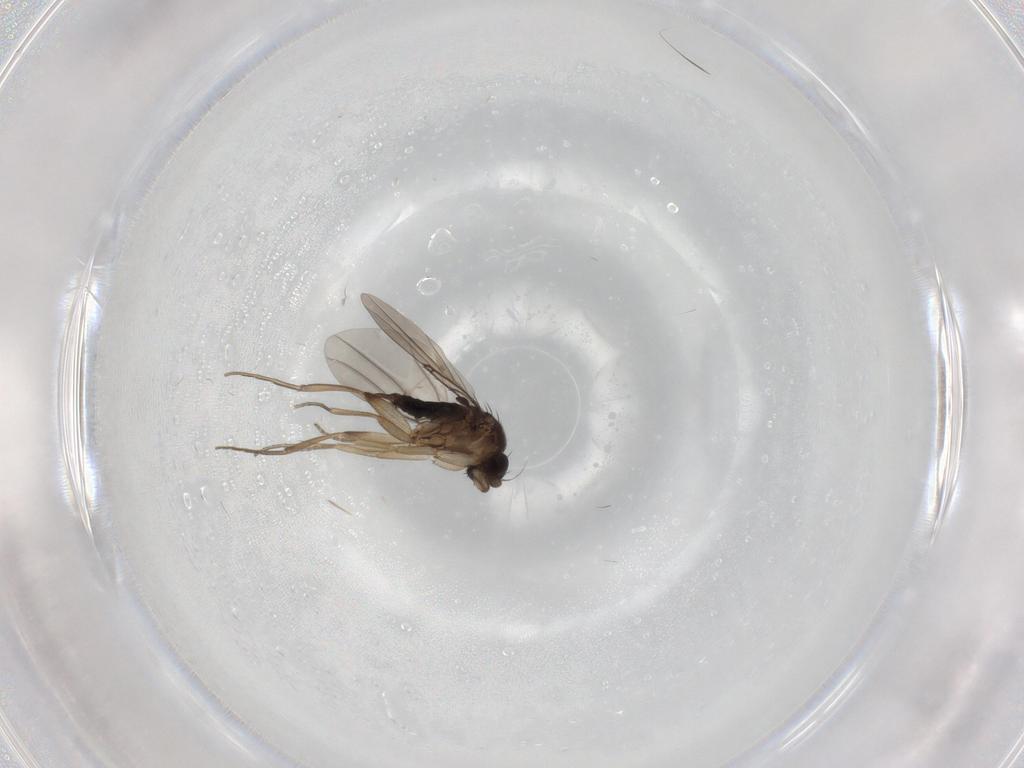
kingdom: Animalia
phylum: Arthropoda
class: Insecta
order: Diptera
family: Phoridae
